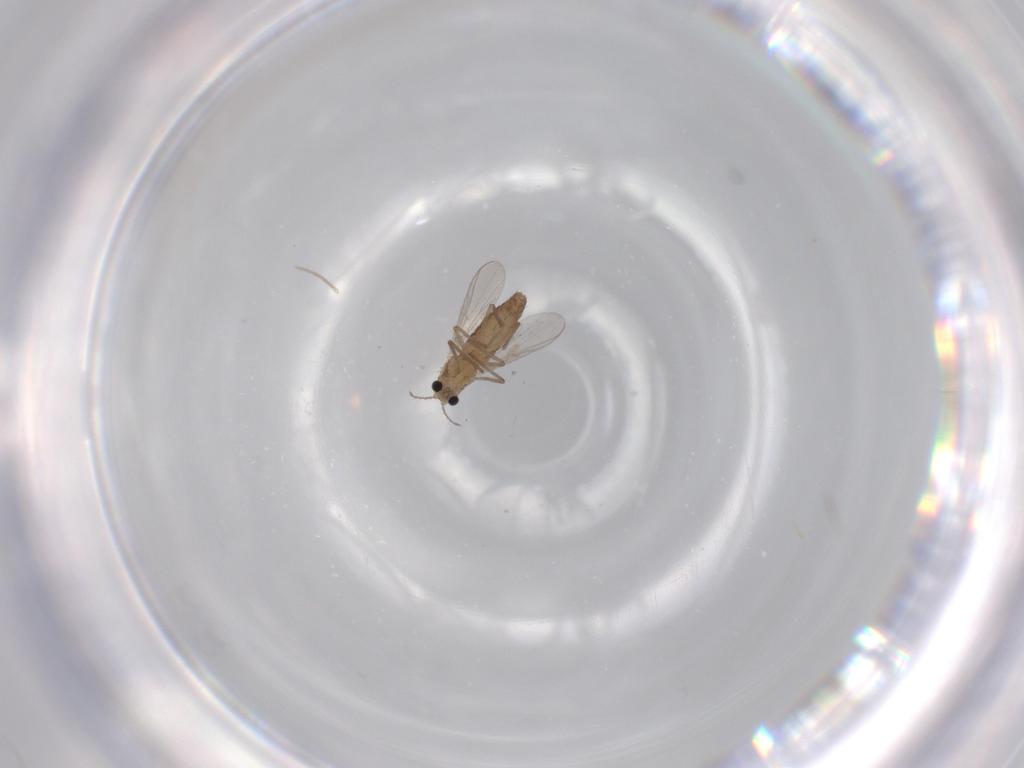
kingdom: Animalia
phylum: Arthropoda
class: Insecta
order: Diptera
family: Chironomidae
